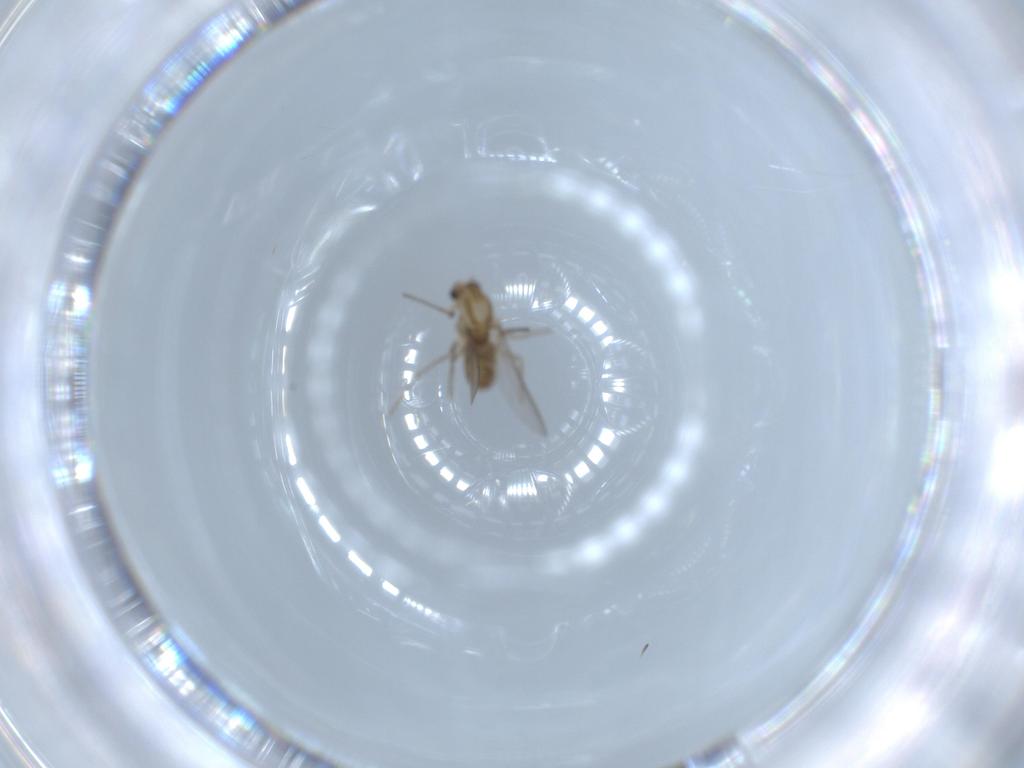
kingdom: Animalia
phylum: Arthropoda
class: Insecta
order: Diptera
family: Chironomidae
